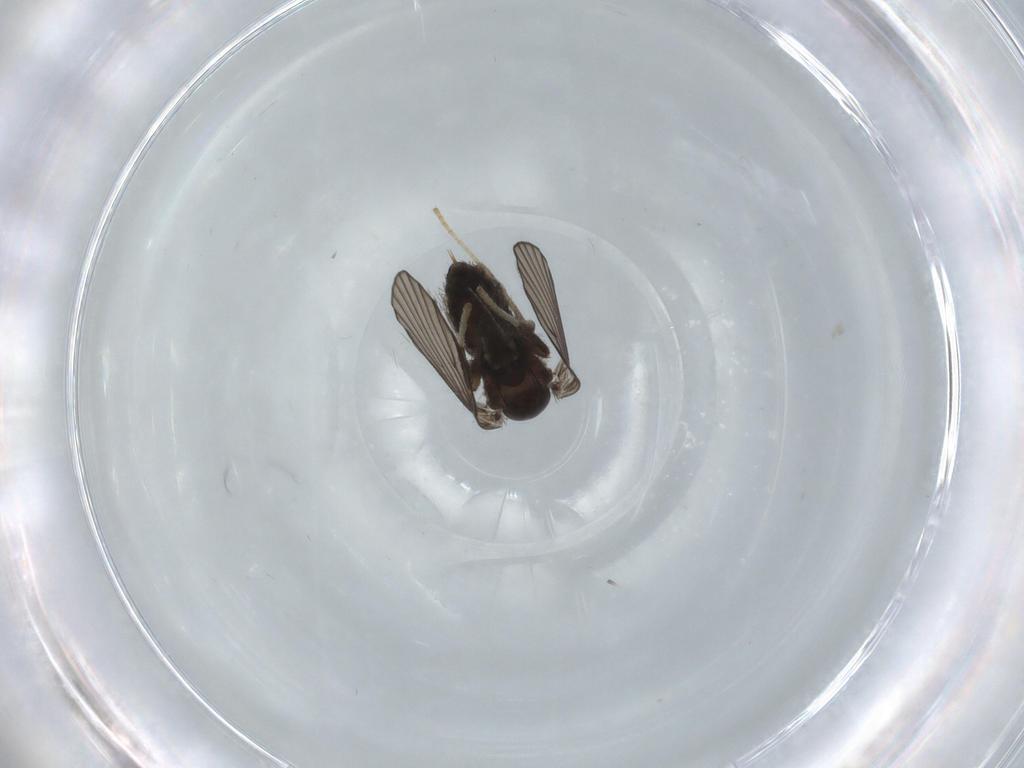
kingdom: Animalia
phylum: Arthropoda
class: Insecta
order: Diptera
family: Psychodidae
